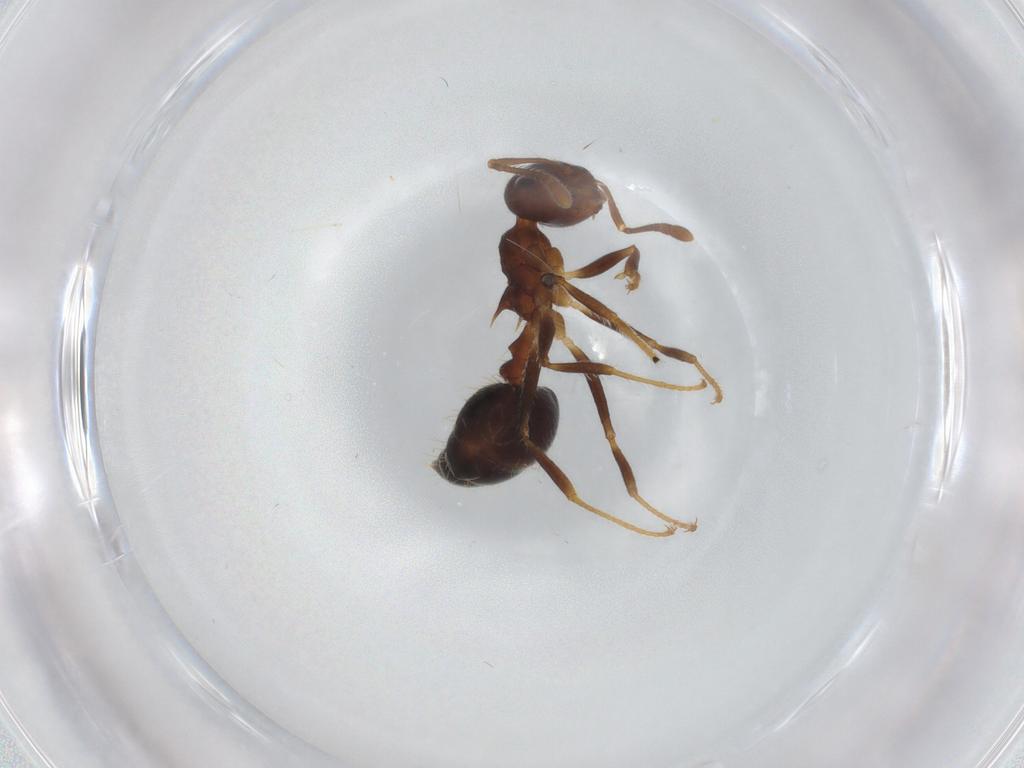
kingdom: Animalia
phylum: Arthropoda
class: Insecta
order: Hymenoptera
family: Formicidae
